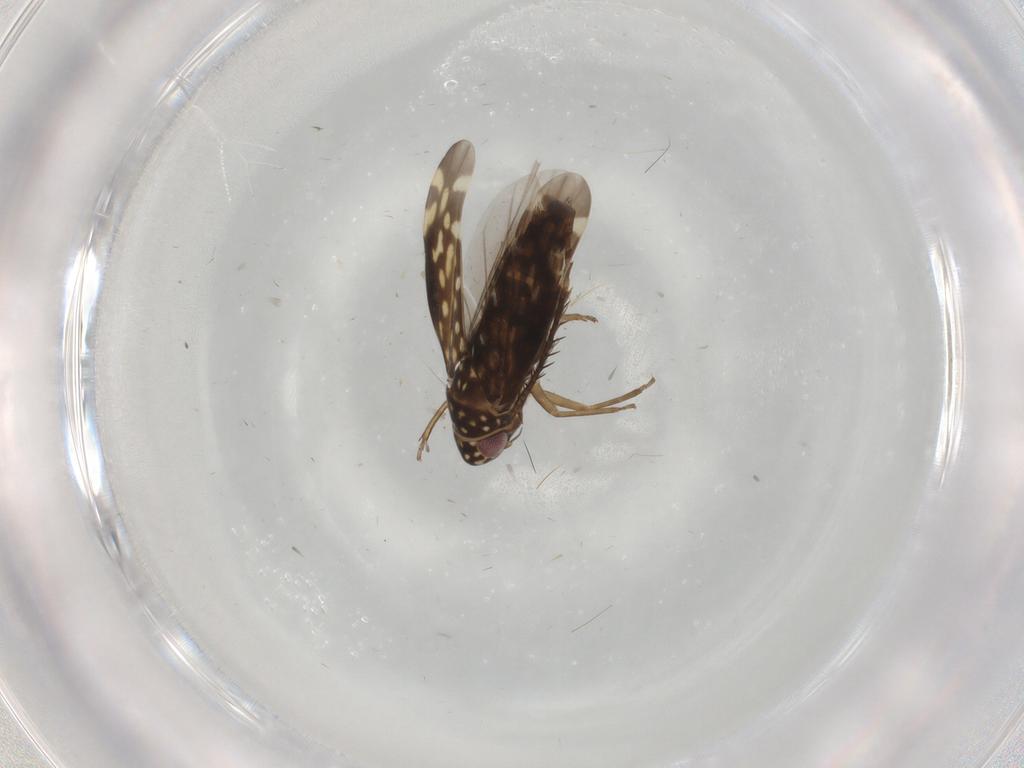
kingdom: Animalia
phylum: Arthropoda
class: Insecta
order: Hemiptera
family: Cicadellidae
